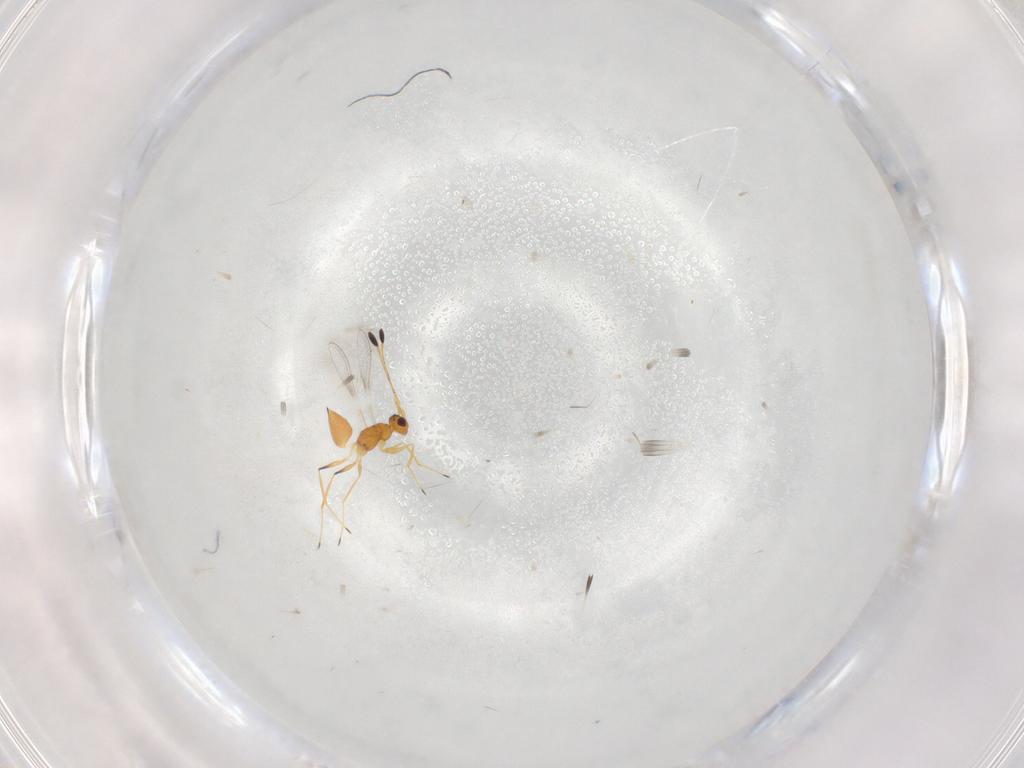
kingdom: Animalia
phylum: Arthropoda
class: Insecta
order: Hymenoptera
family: Mymaridae
